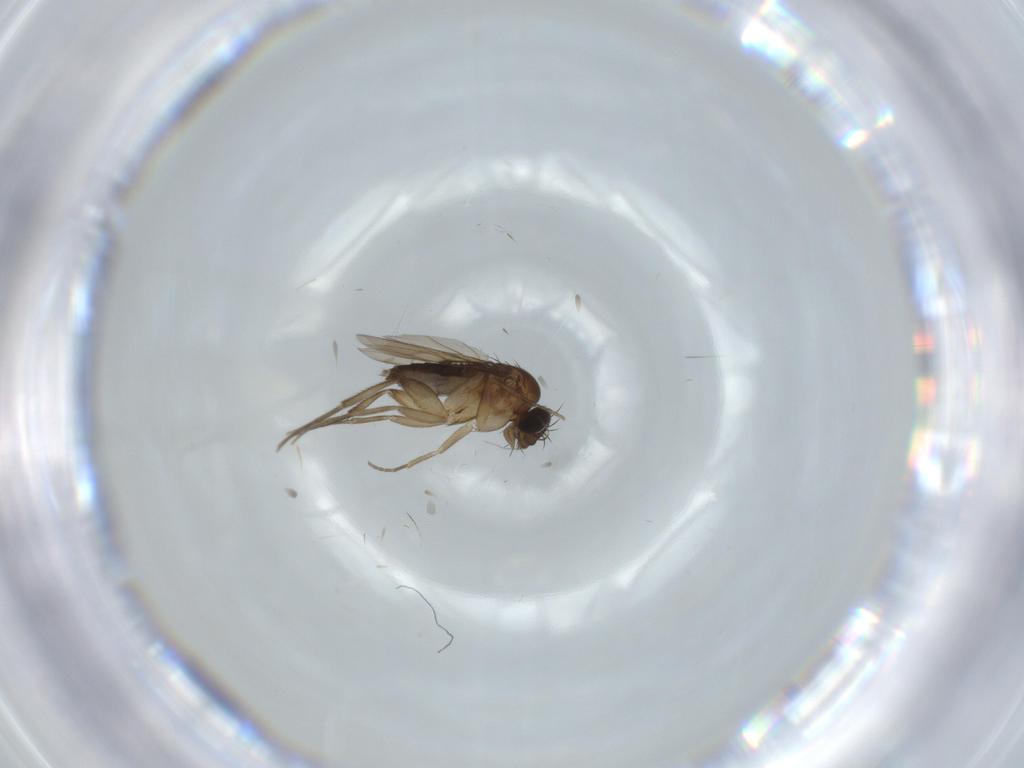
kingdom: Animalia
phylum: Arthropoda
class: Insecta
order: Diptera
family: Phoridae
